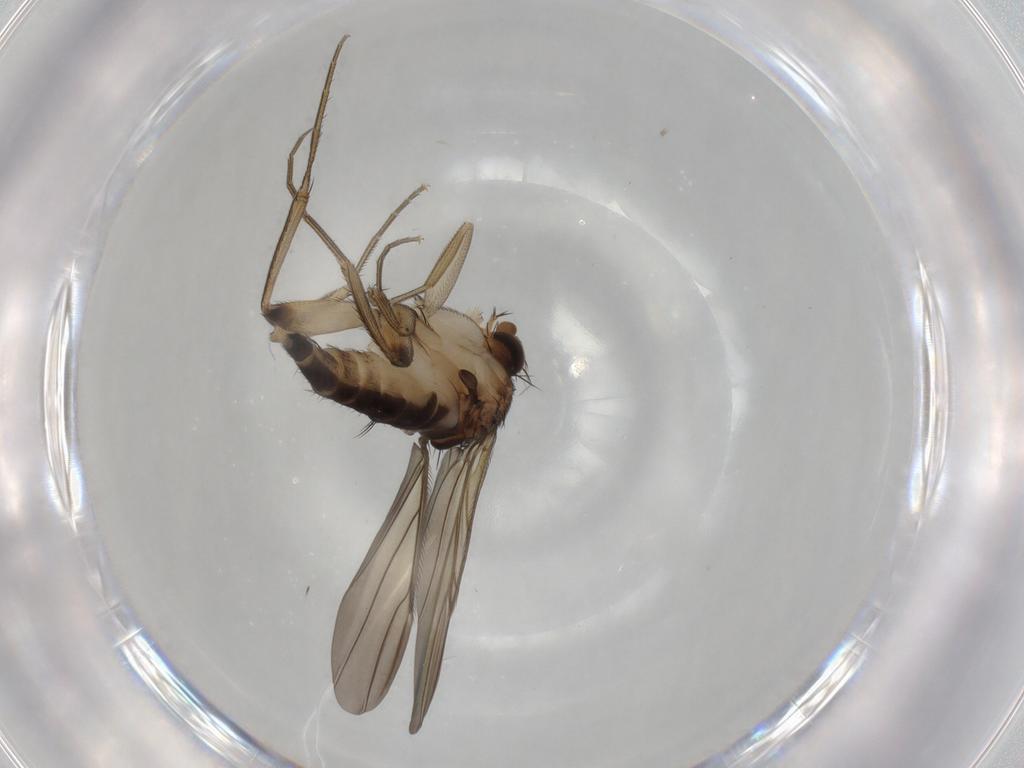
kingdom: Animalia
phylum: Arthropoda
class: Insecta
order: Diptera
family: Phoridae
